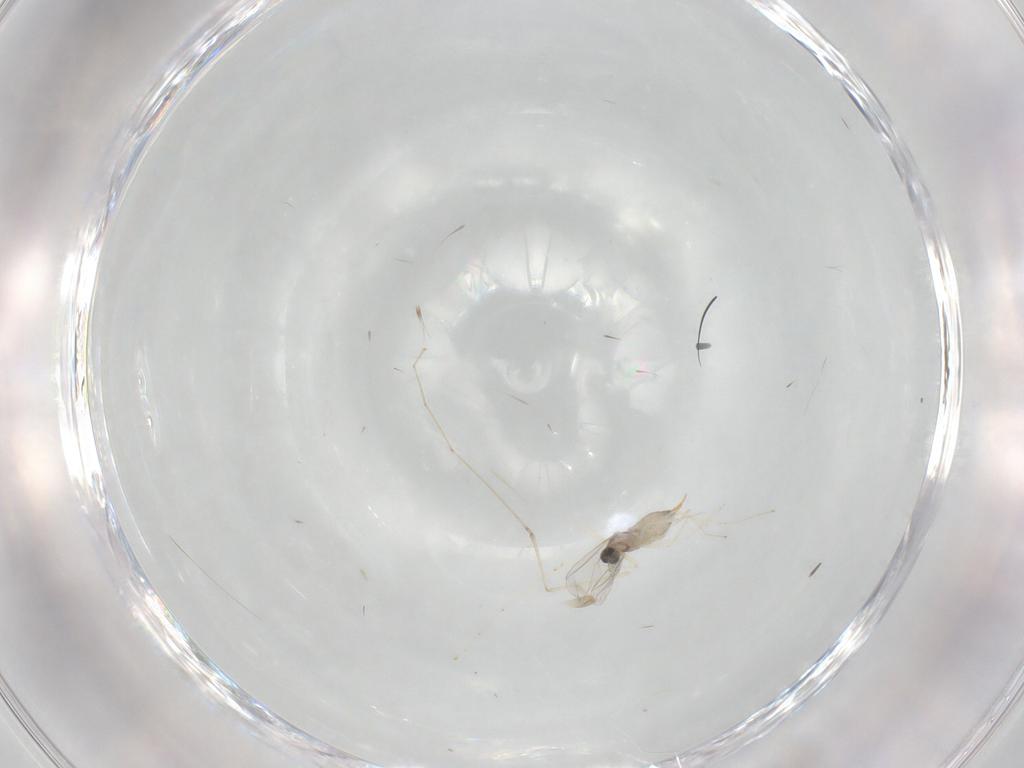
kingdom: Animalia
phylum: Arthropoda
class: Insecta
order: Diptera
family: Cecidomyiidae
